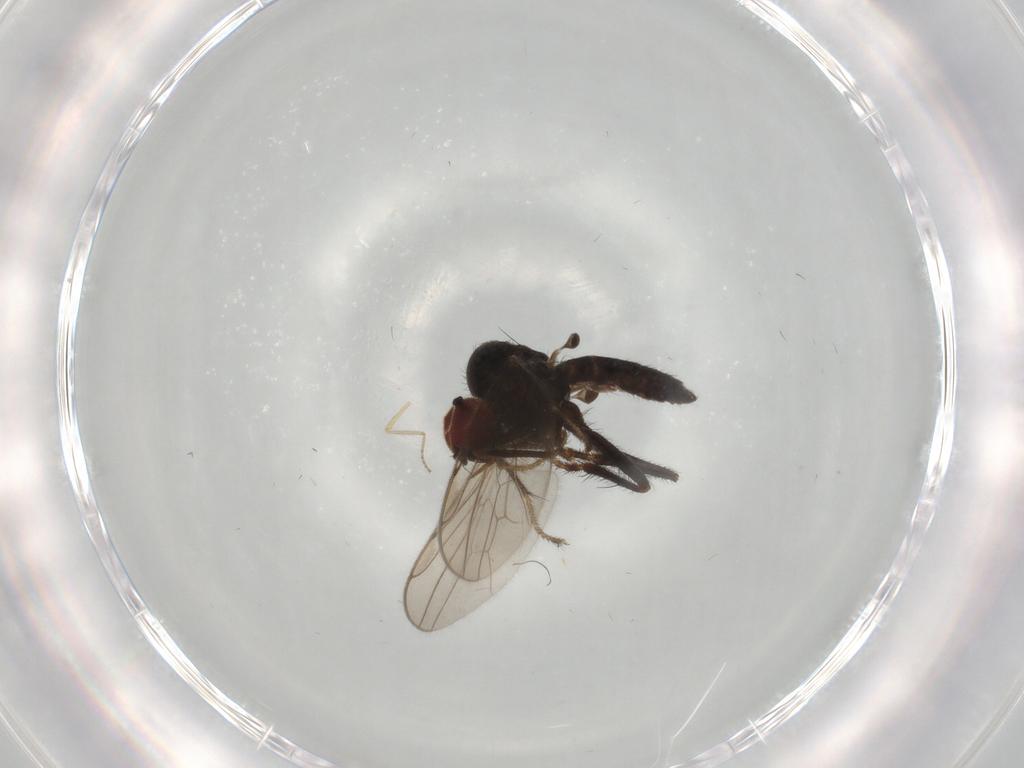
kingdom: Animalia
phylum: Arthropoda
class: Insecta
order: Diptera
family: Hybotidae
